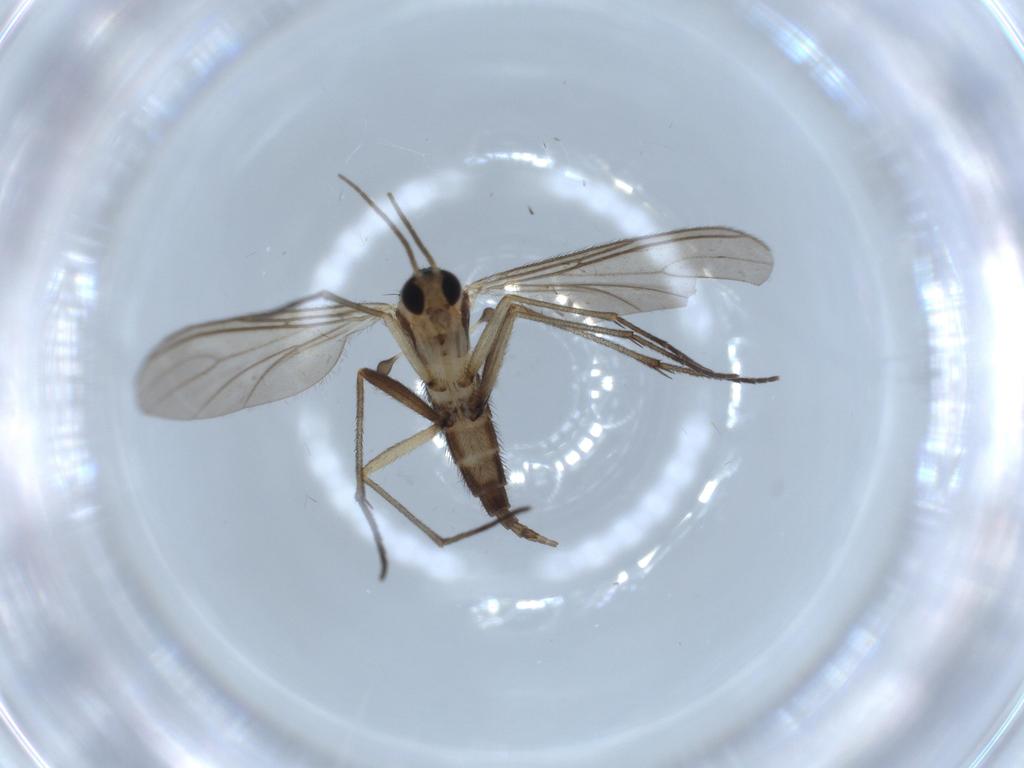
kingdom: Animalia
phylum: Arthropoda
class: Insecta
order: Diptera
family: Sciaridae
